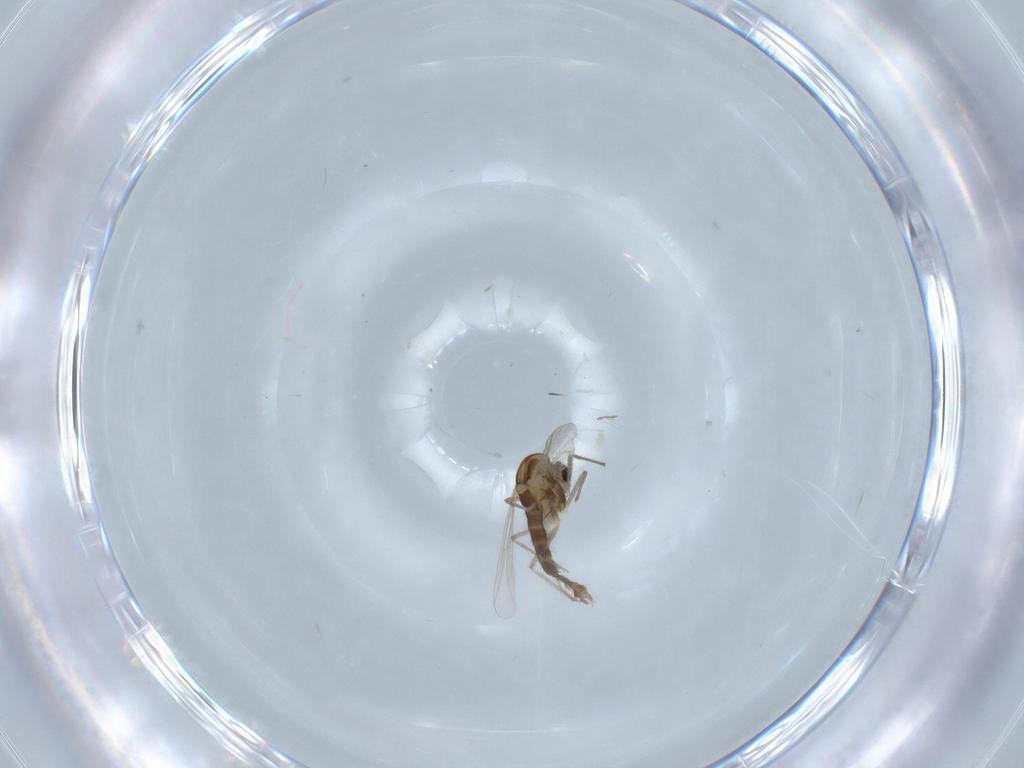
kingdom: Animalia
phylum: Arthropoda
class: Insecta
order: Diptera
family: Chironomidae
